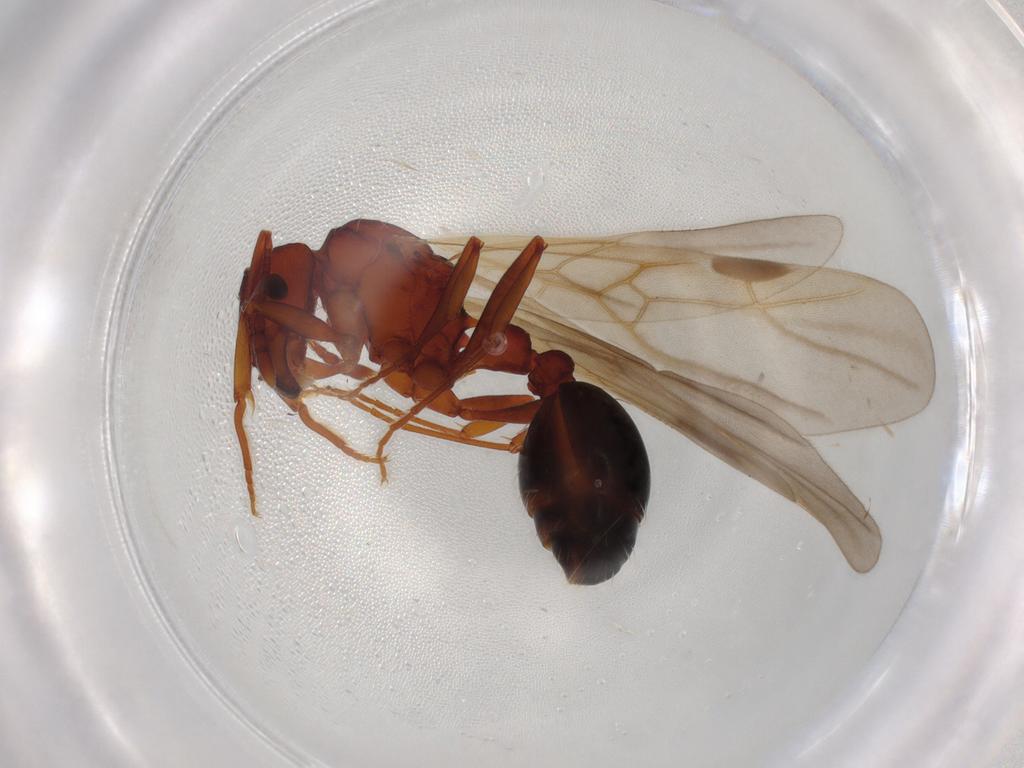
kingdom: Animalia
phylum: Arthropoda
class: Insecta
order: Hymenoptera
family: Formicidae
